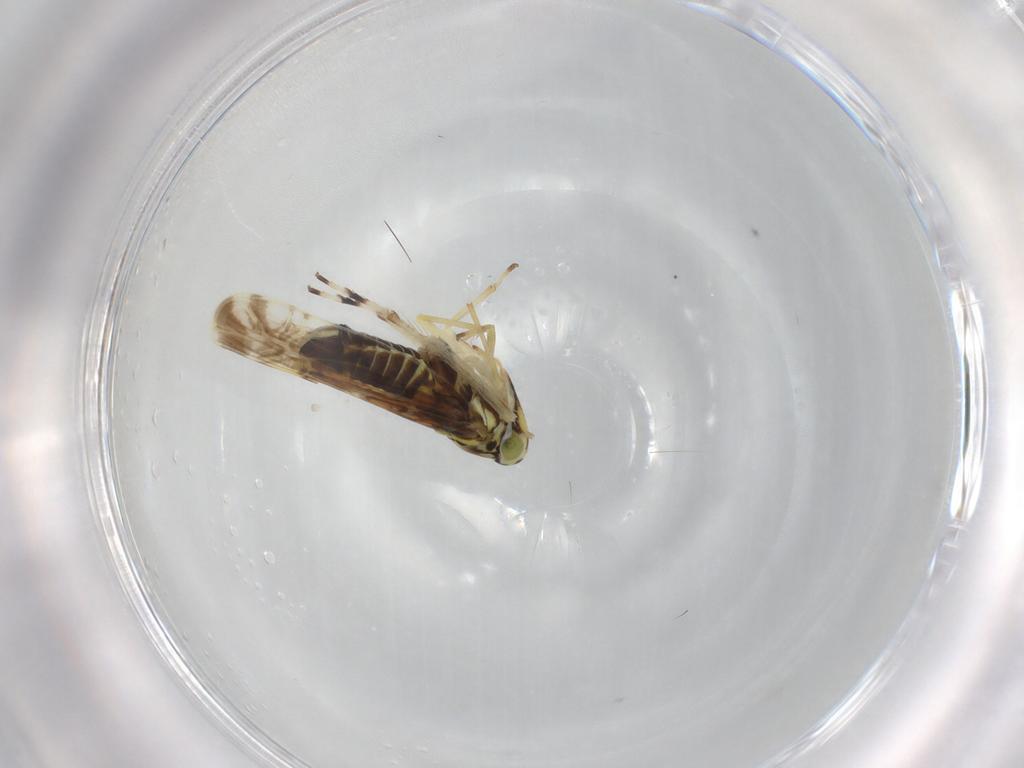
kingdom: Animalia
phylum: Arthropoda
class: Insecta
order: Hemiptera
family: Cicadellidae
